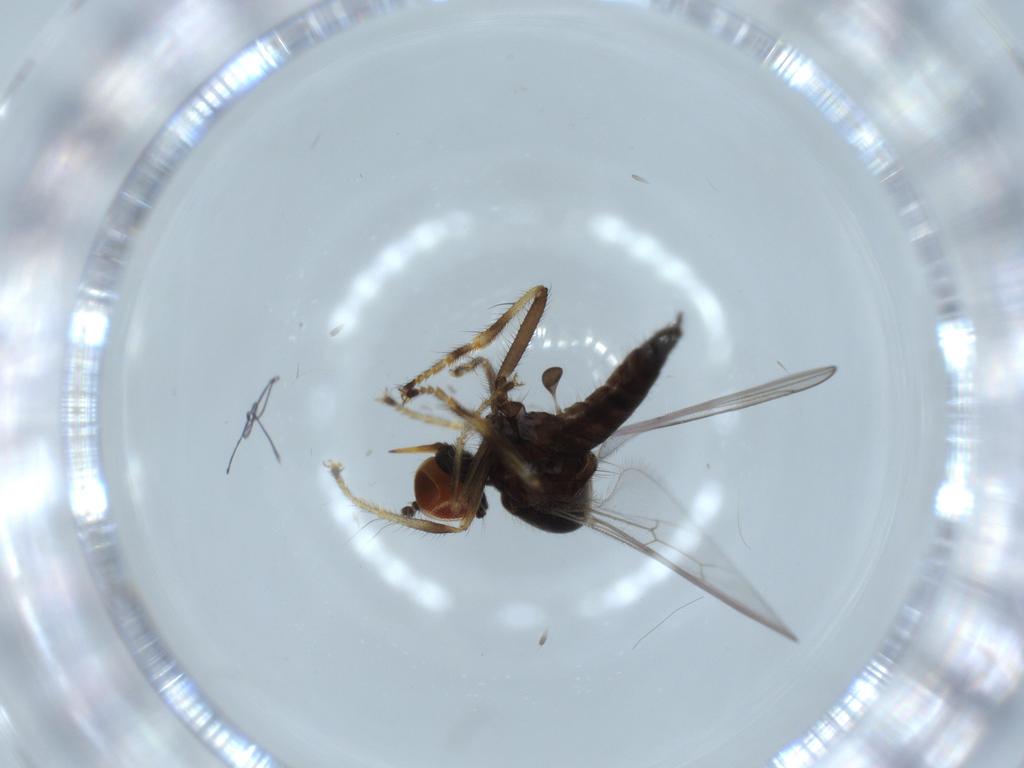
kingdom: Animalia
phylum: Arthropoda
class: Insecta
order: Diptera
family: Hybotidae
